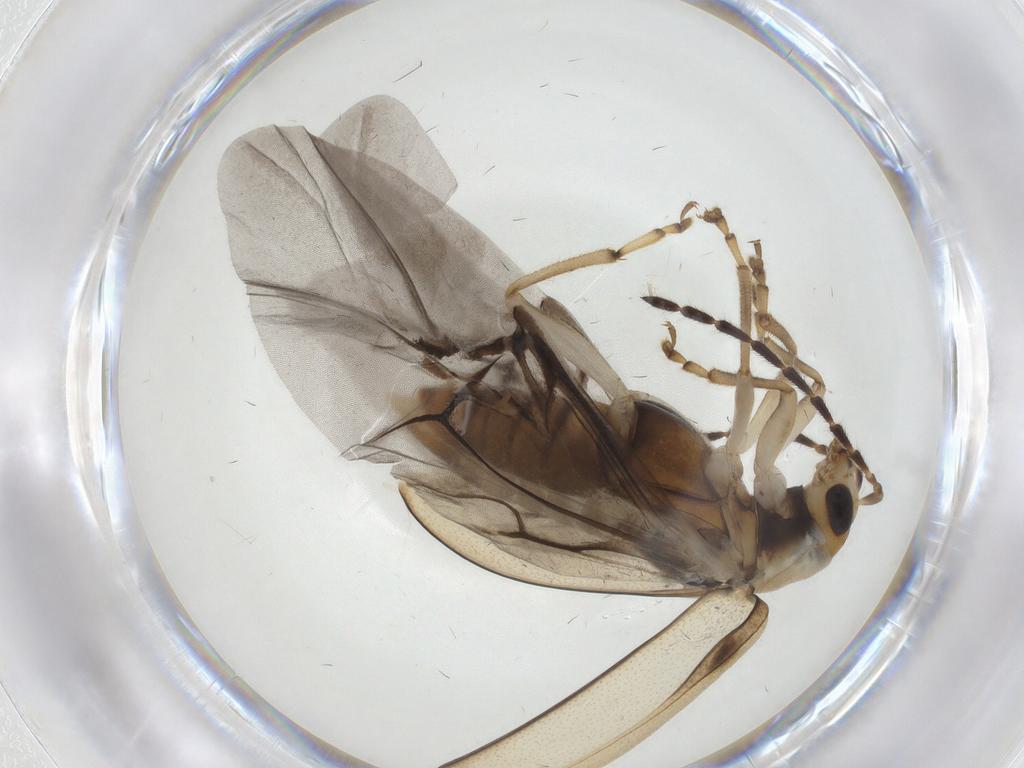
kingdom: Animalia
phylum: Arthropoda
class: Insecta
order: Coleoptera
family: Chrysomelidae
